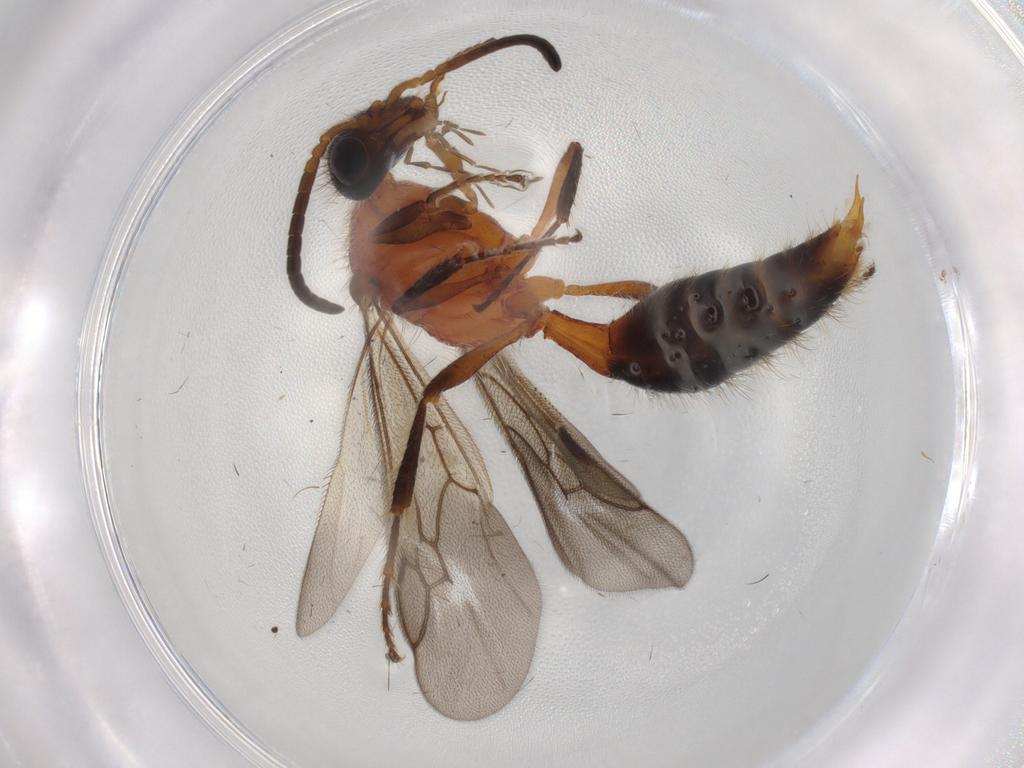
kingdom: Animalia
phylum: Arthropoda
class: Insecta
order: Hymenoptera
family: Mutillidae
